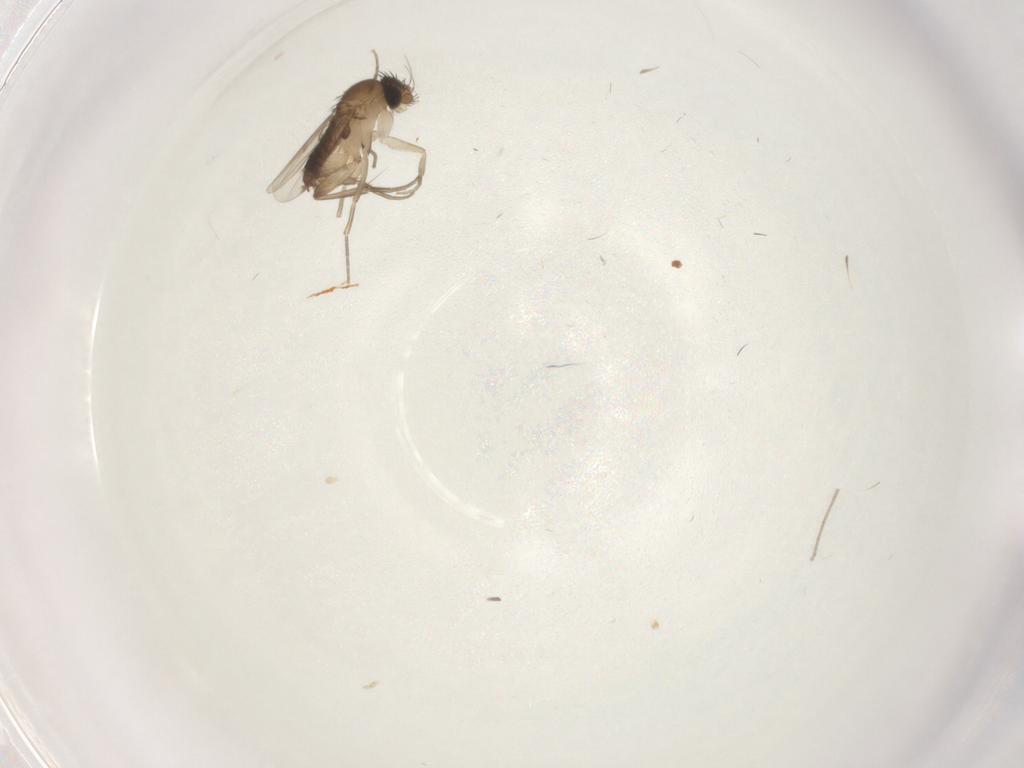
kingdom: Animalia
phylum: Arthropoda
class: Insecta
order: Diptera
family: Phoridae
